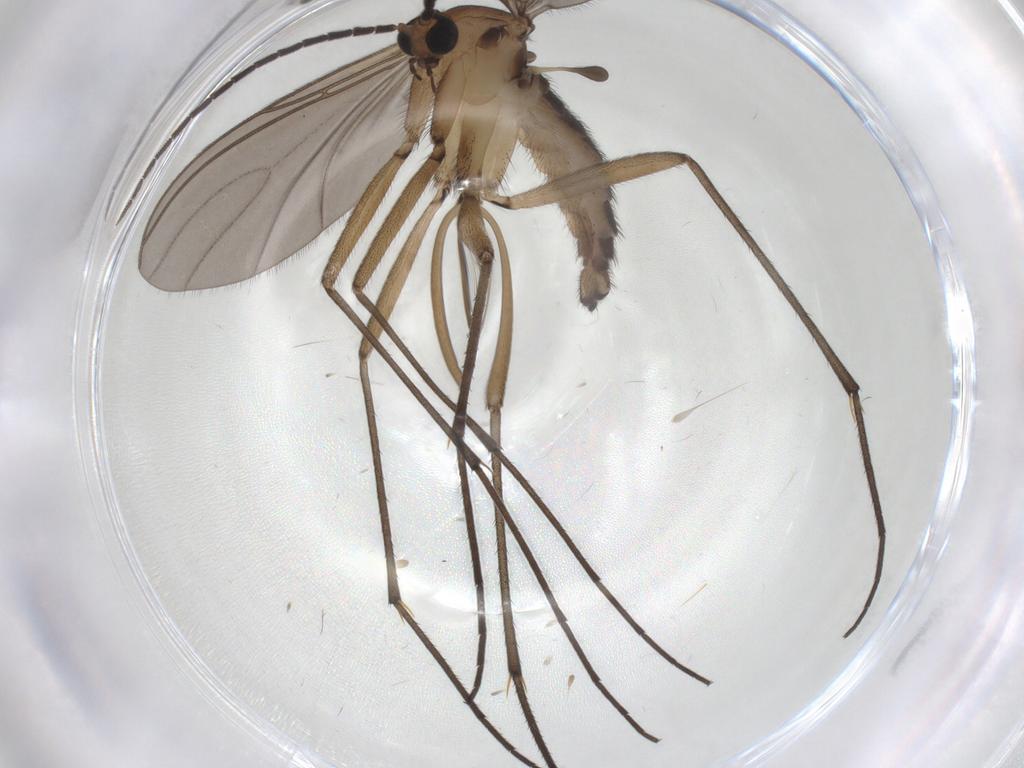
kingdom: Animalia
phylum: Arthropoda
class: Insecta
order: Diptera
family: Sciaridae
